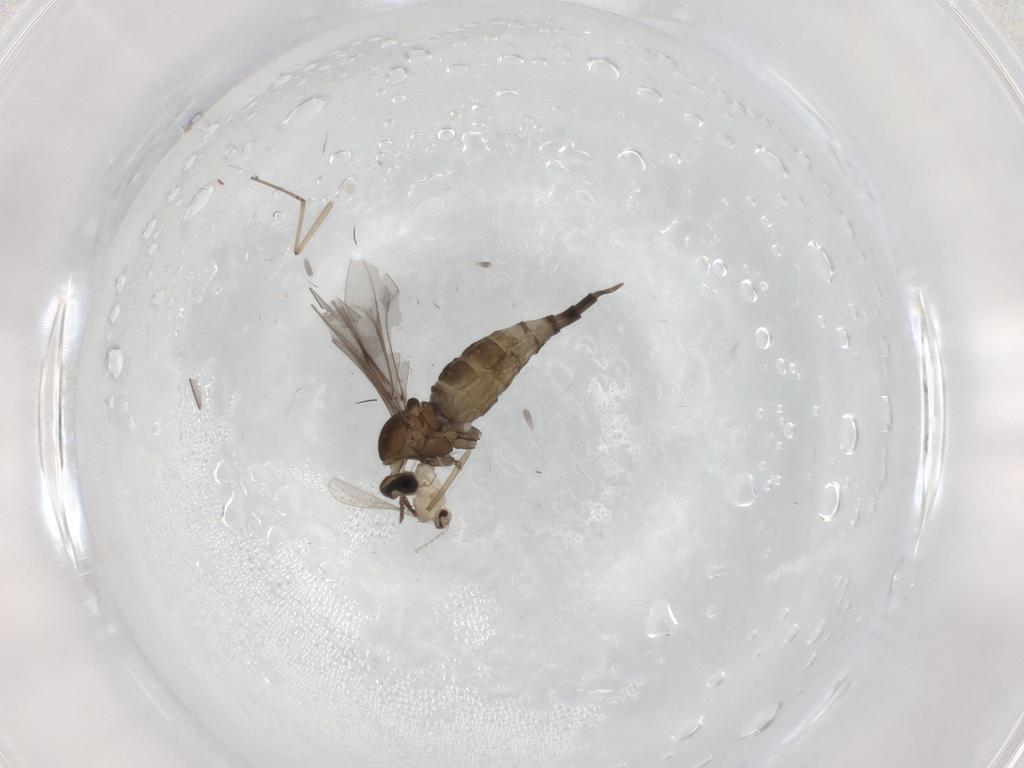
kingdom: Animalia
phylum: Arthropoda
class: Insecta
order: Diptera
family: Cecidomyiidae
